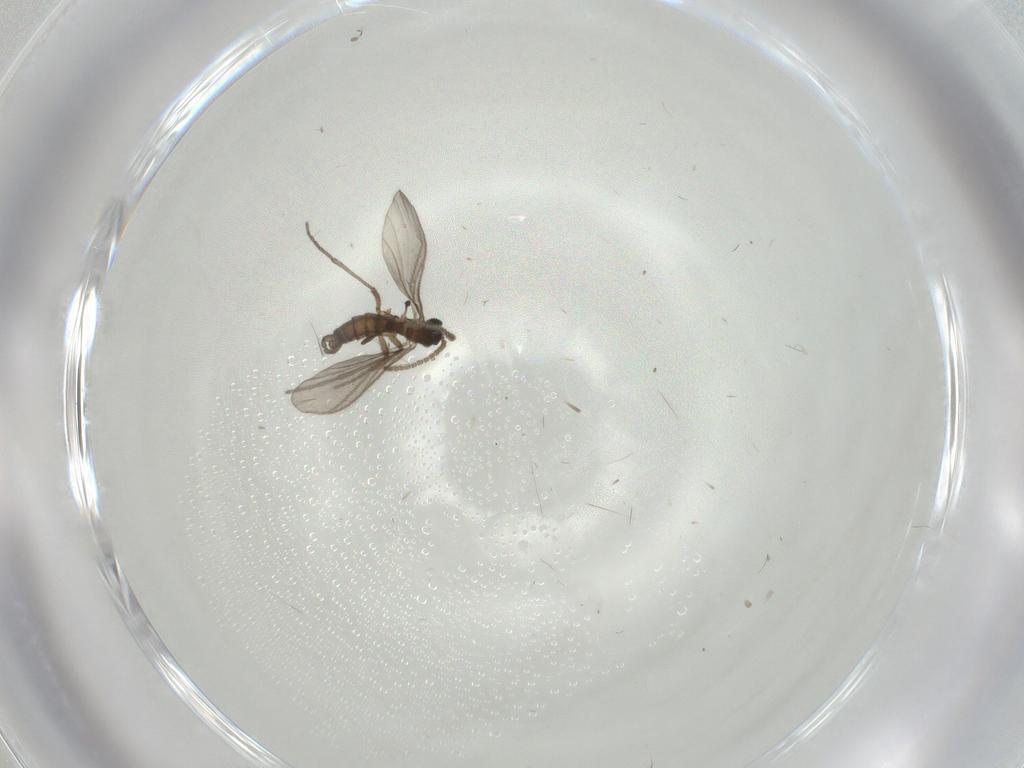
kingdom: Animalia
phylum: Arthropoda
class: Insecta
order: Diptera
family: Sciaridae
